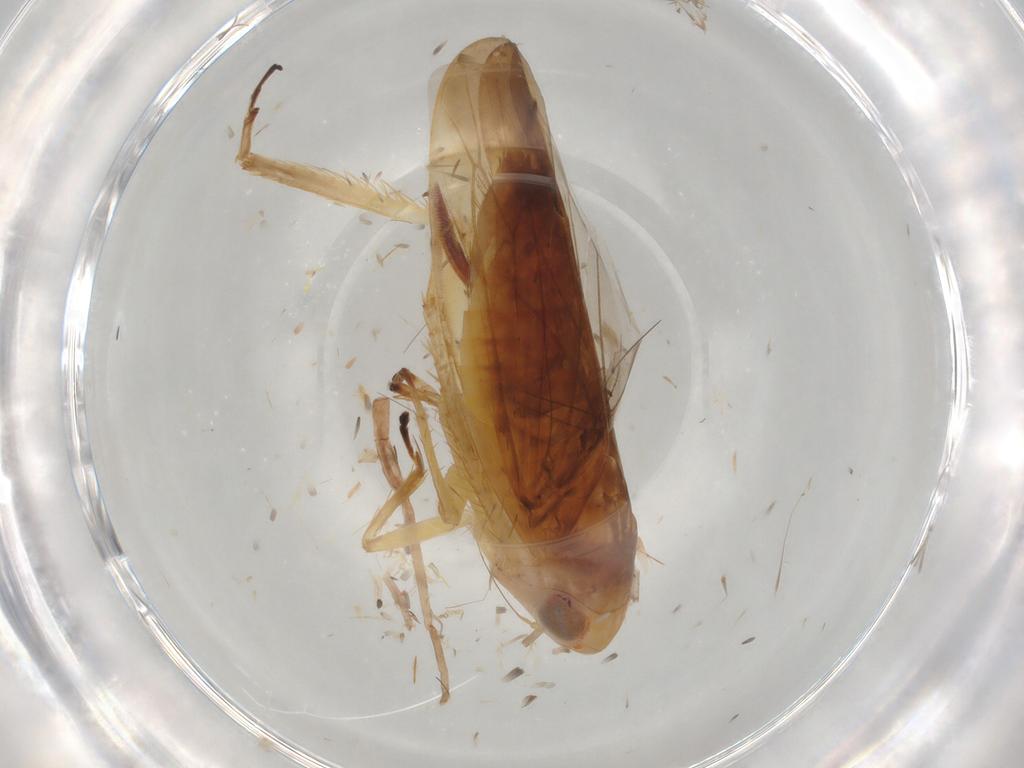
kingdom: Animalia
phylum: Arthropoda
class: Insecta
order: Hemiptera
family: Cicadellidae
